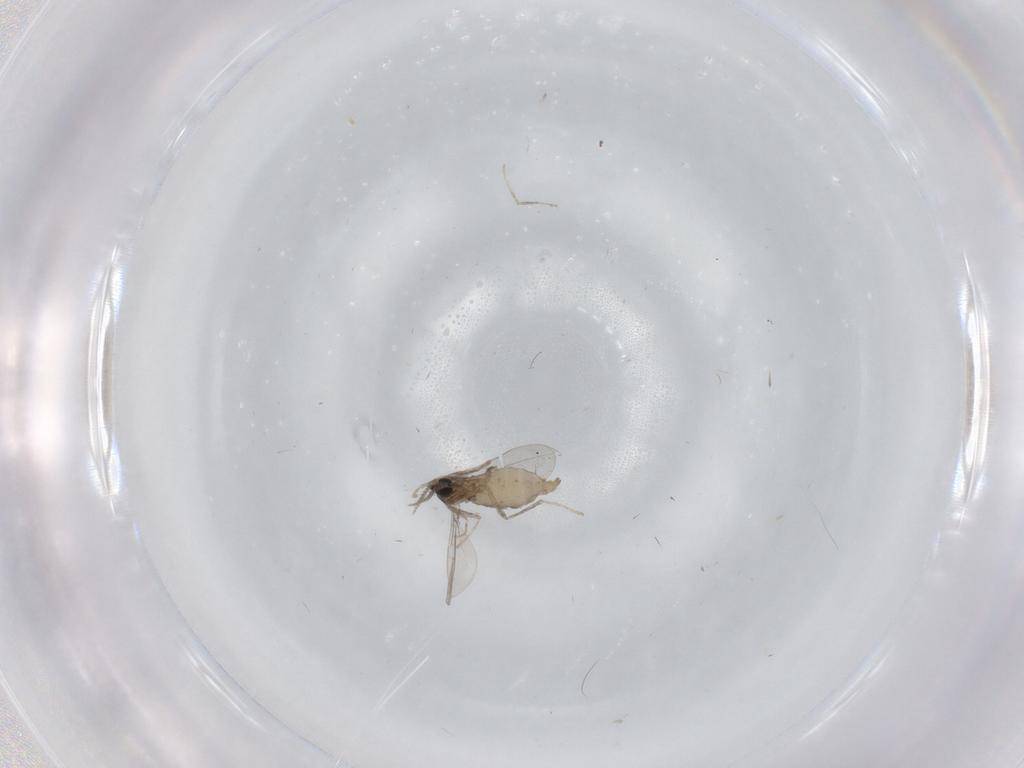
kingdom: Animalia
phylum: Arthropoda
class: Insecta
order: Diptera
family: Cecidomyiidae
